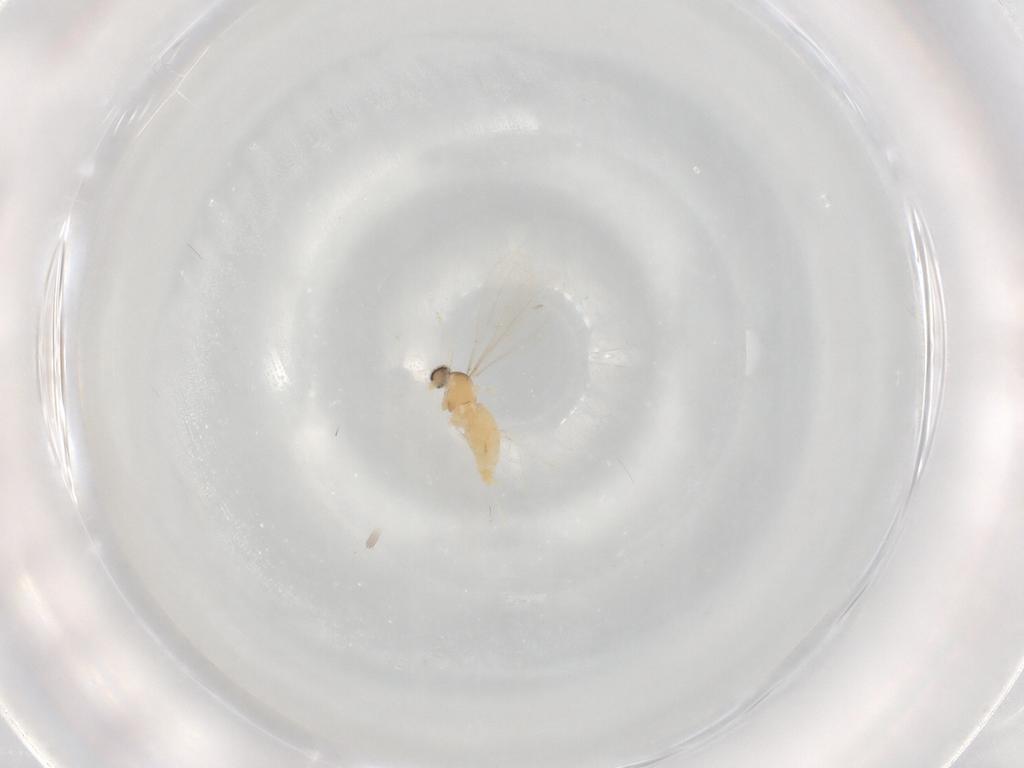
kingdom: Animalia
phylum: Arthropoda
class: Insecta
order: Diptera
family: Cecidomyiidae
